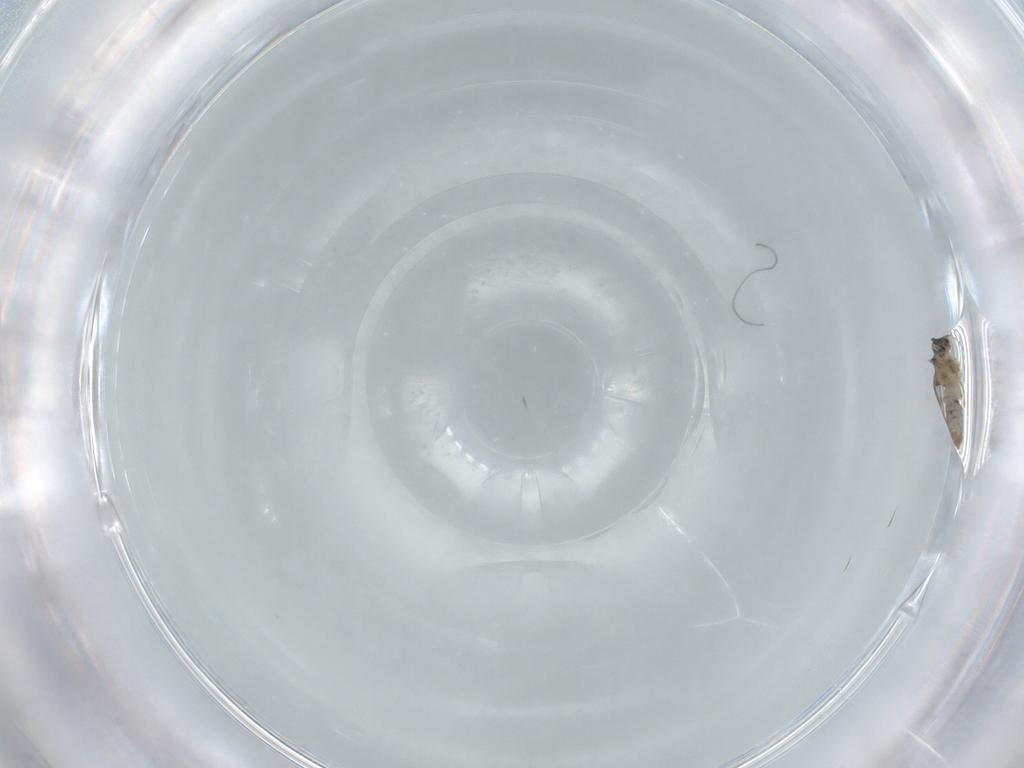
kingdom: Animalia
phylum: Arthropoda
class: Insecta
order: Diptera
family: Cecidomyiidae
